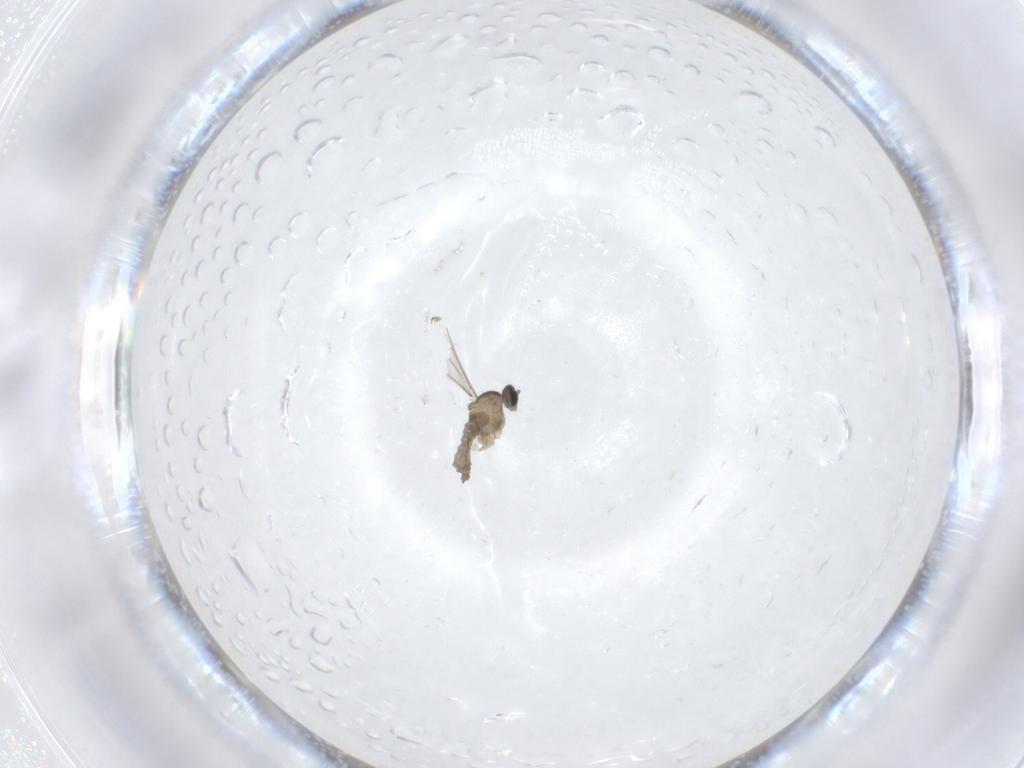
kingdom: Animalia
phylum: Arthropoda
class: Insecta
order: Diptera
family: Cecidomyiidae
